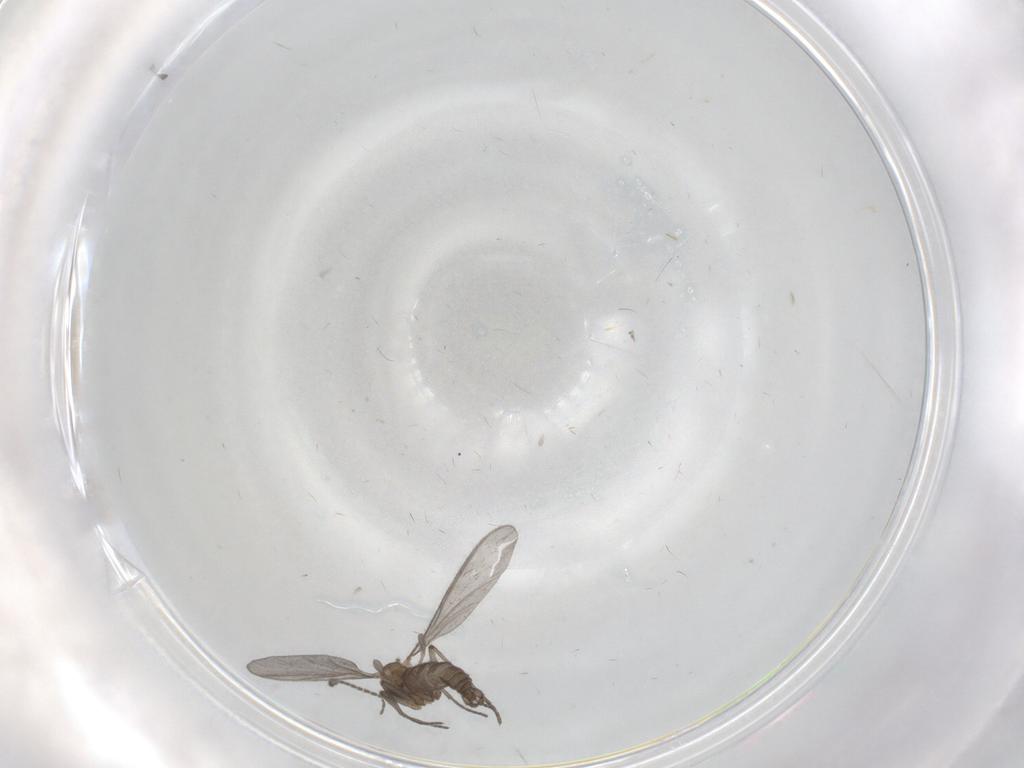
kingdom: Animalia
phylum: Arthropoda
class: Insecta
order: Diptera
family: Sciaridae
